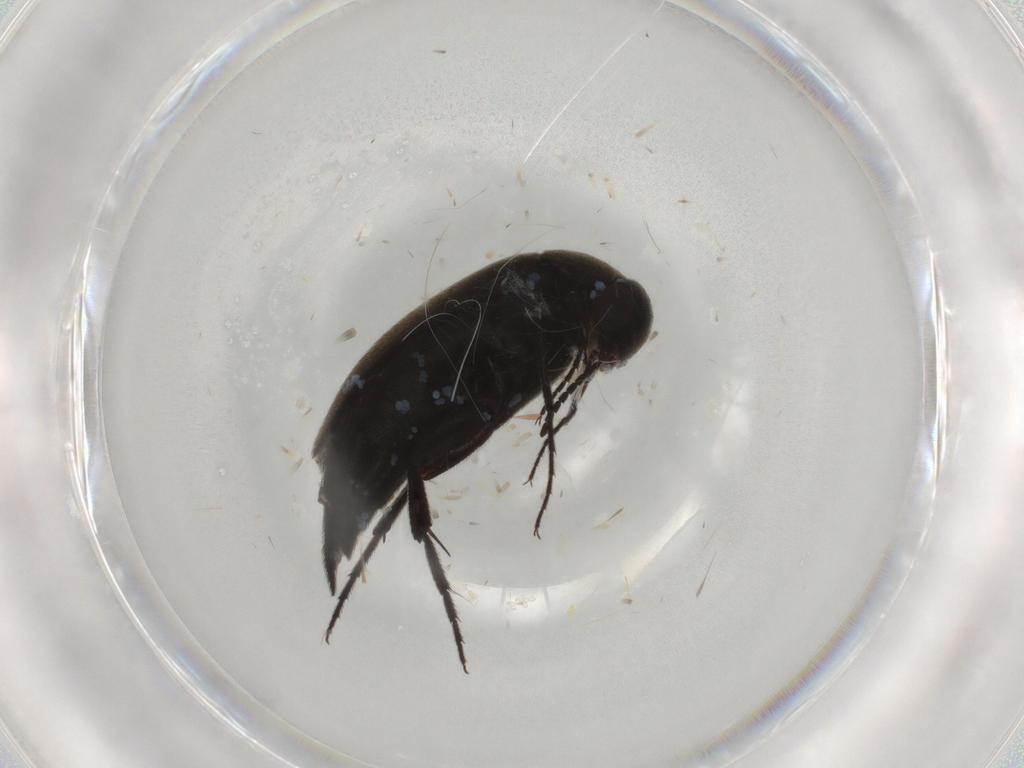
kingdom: Animalia
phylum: Arthropoda
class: Insecta
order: Coleoptera
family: Mordellidae
